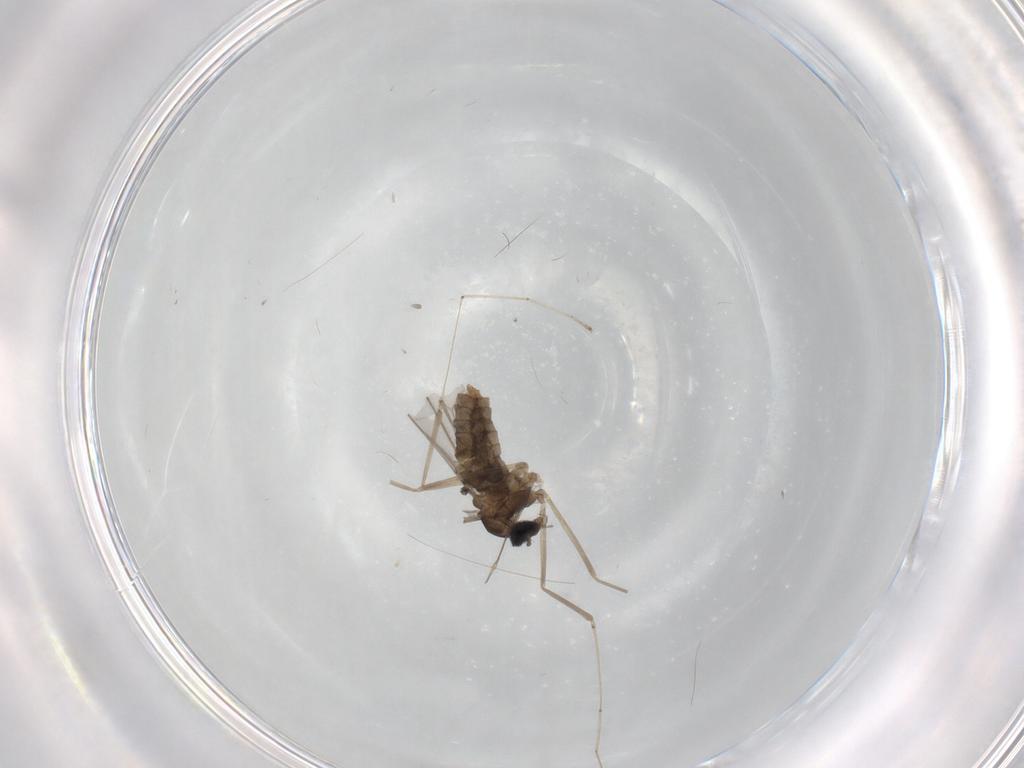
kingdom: Animalia
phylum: Arthropoda
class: Insecta
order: Diptera
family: Cecidomyiidae
